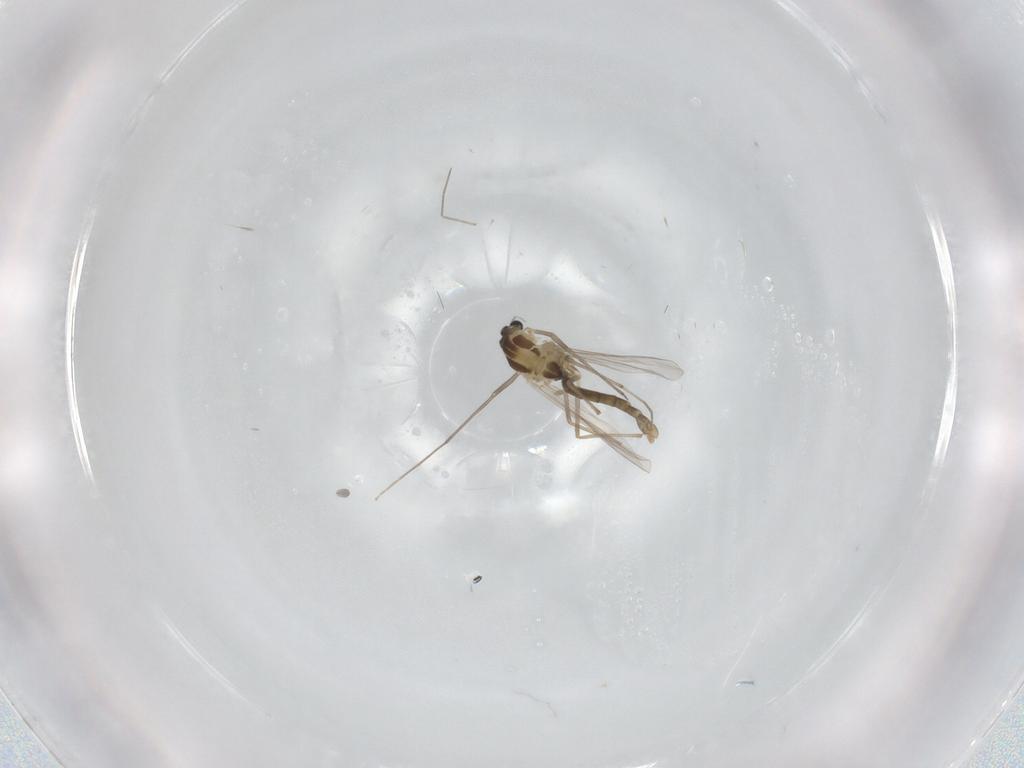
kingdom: Animalia
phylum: Arthropoda
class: Insecta
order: Diptera
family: Chironomidae
